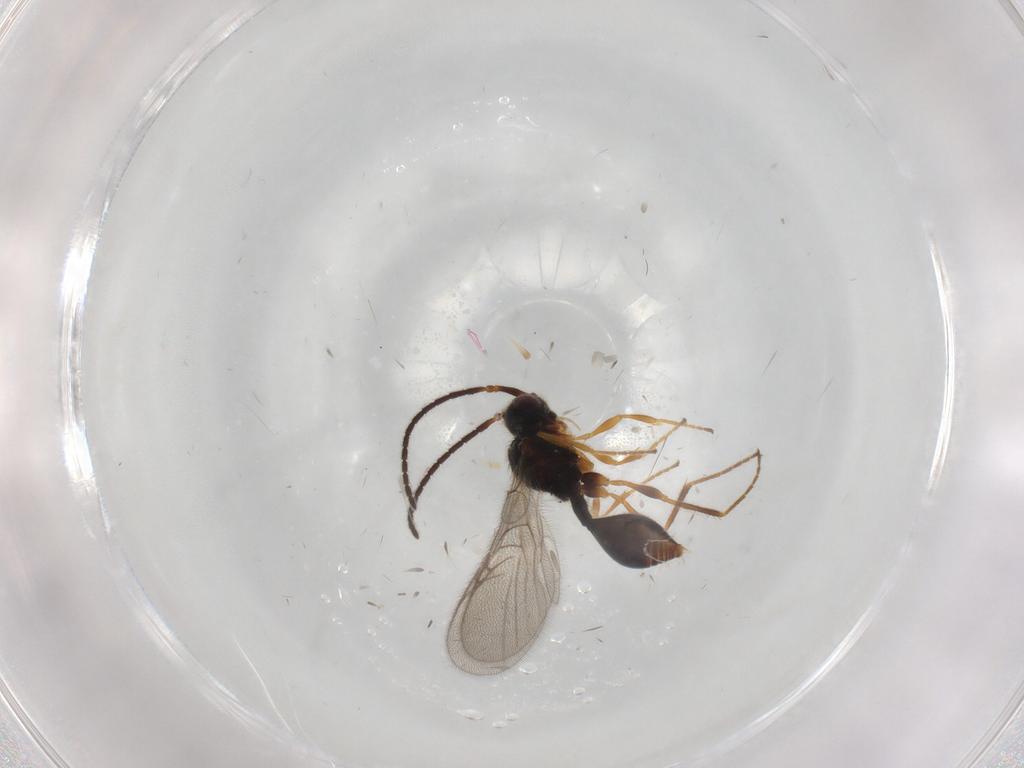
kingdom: Animalia
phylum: Arthropoda
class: Insecta
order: Hymenoptera
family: Diapriidae
